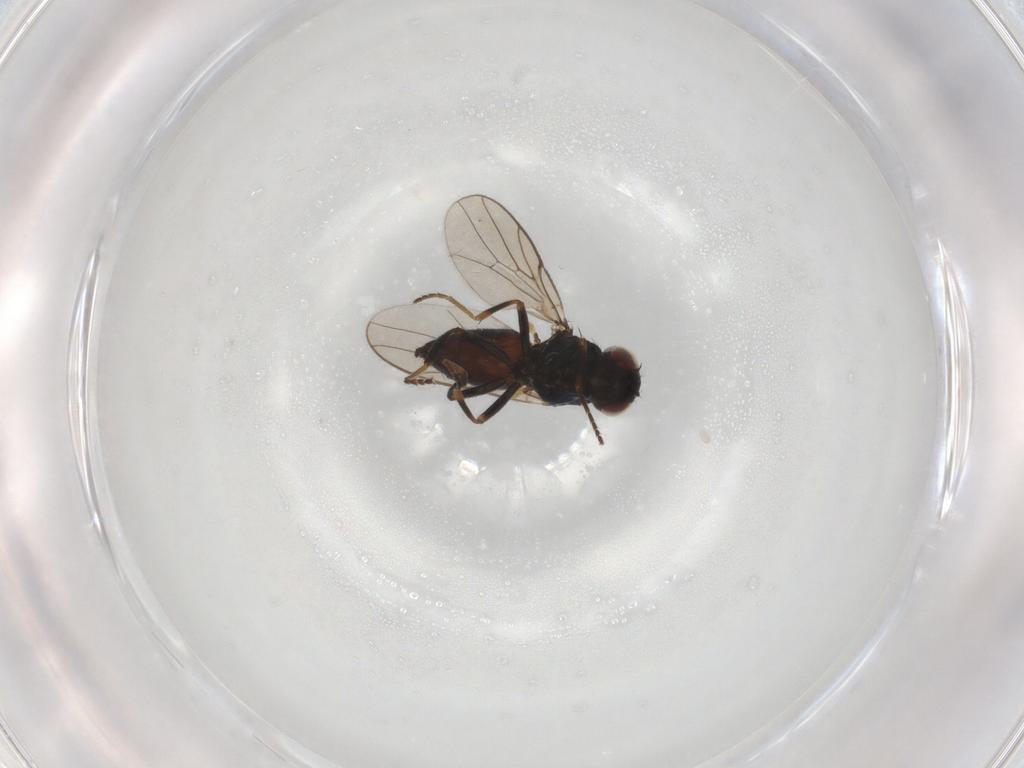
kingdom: Animalia
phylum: Arthropoda
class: Insecta
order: Diptera
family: Chloropidae
